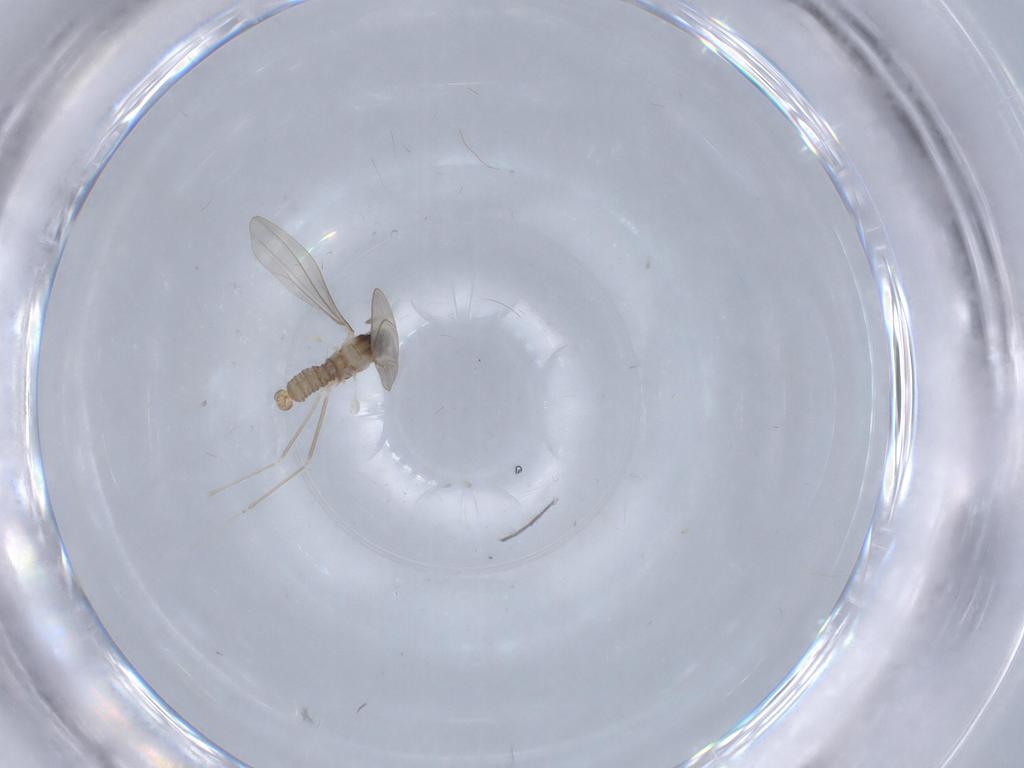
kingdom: Animalia
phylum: Arthropoda
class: Insecta
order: Diptera
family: Sciaridae
